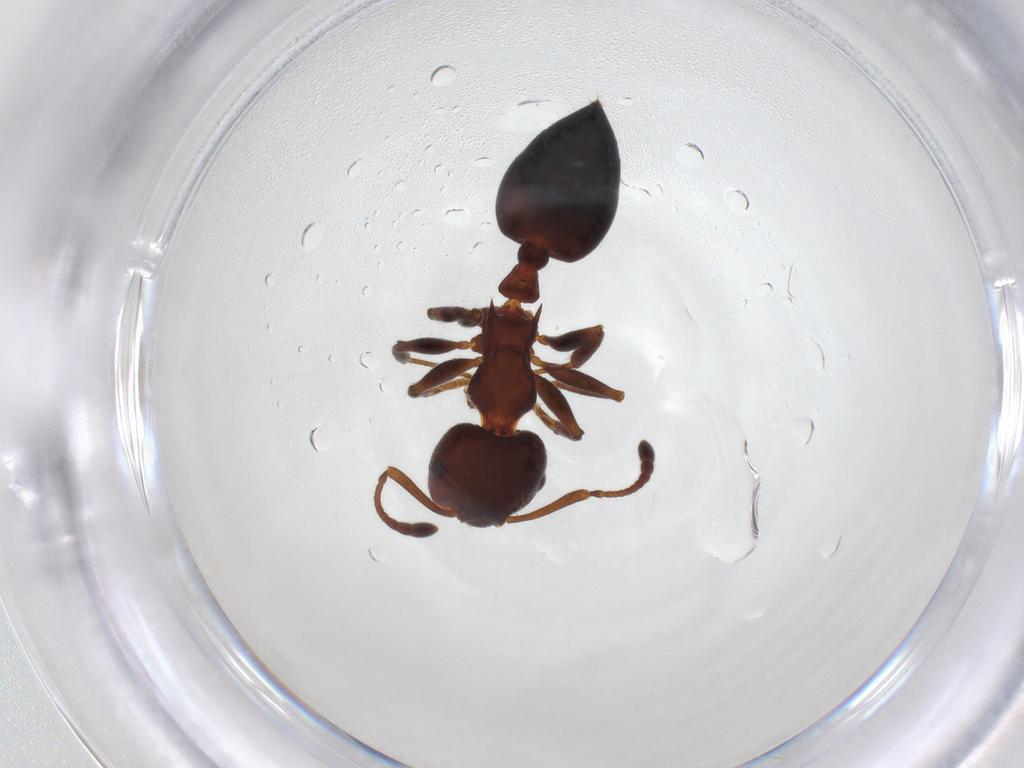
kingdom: Animalia
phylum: Arthropoda
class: Insecta
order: Hymenoptera
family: Formicidae
